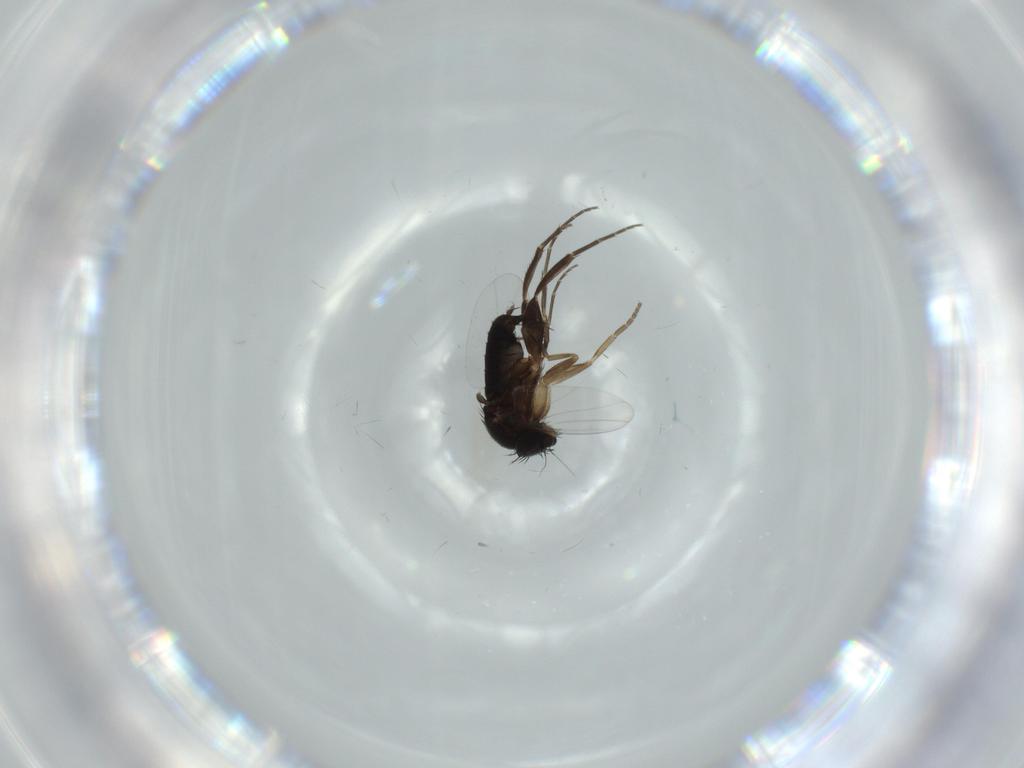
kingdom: Animalia
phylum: Arthropoda
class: Insecta
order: Diptera
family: Phoridae
